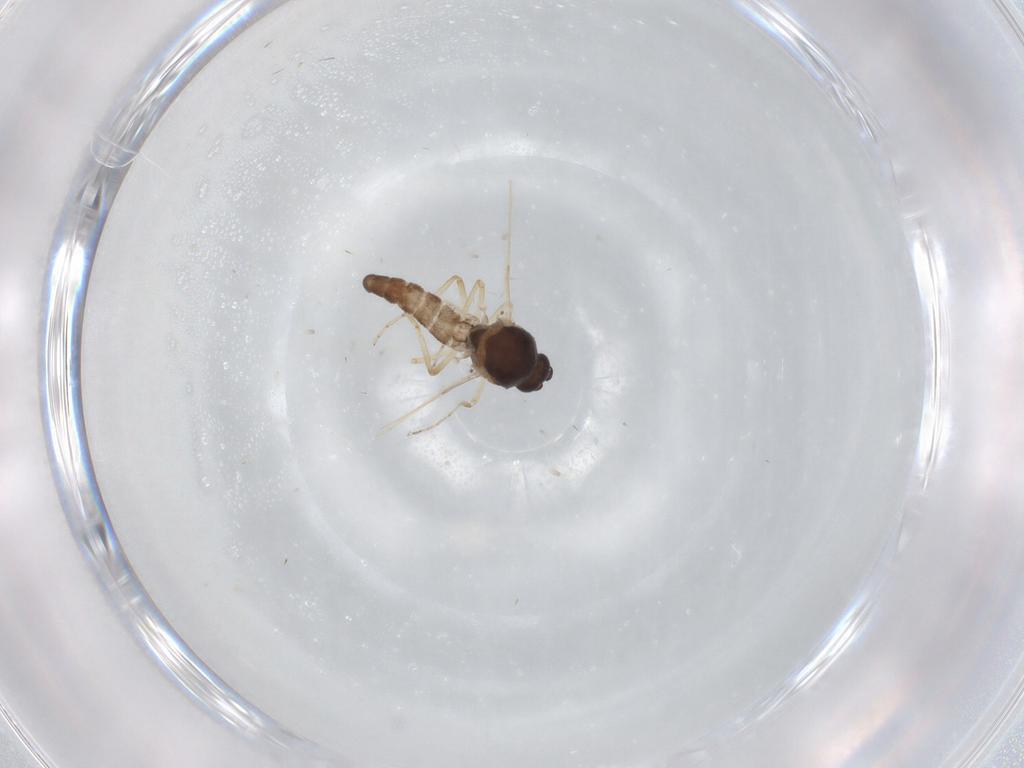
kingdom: Animalia
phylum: Arthropoda
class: Insecta
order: Diptera
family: Ceratopogonidae
